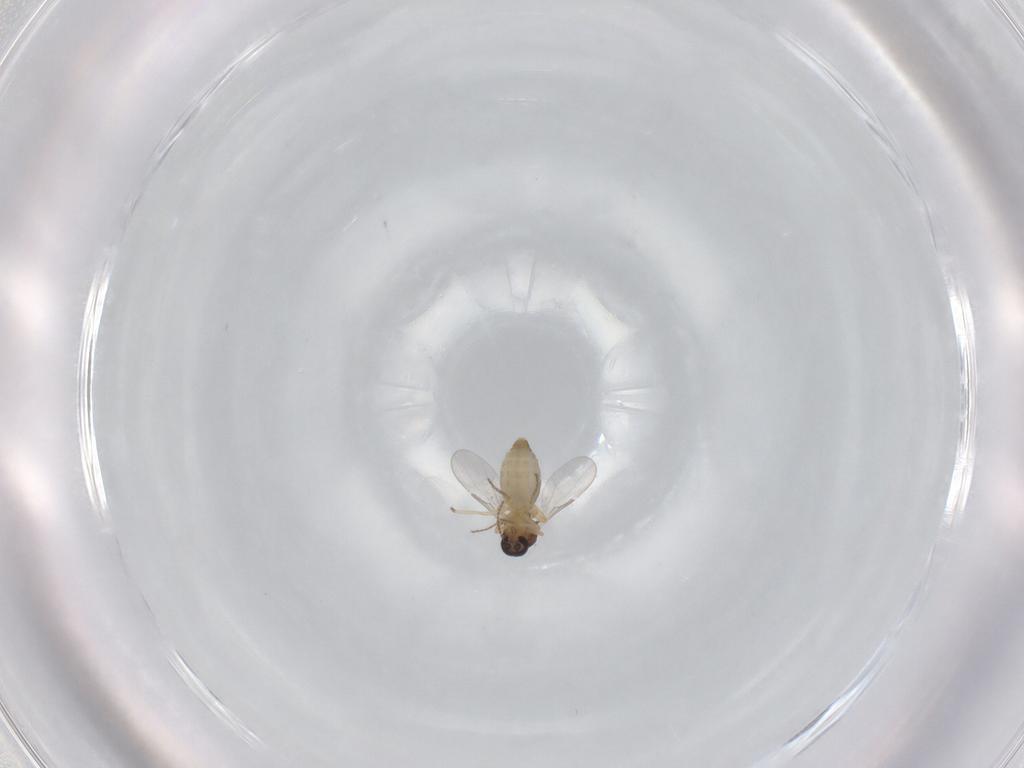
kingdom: Animalia
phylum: Arthropoda
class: Insecta
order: Diptera
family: Ceratopogonidae
